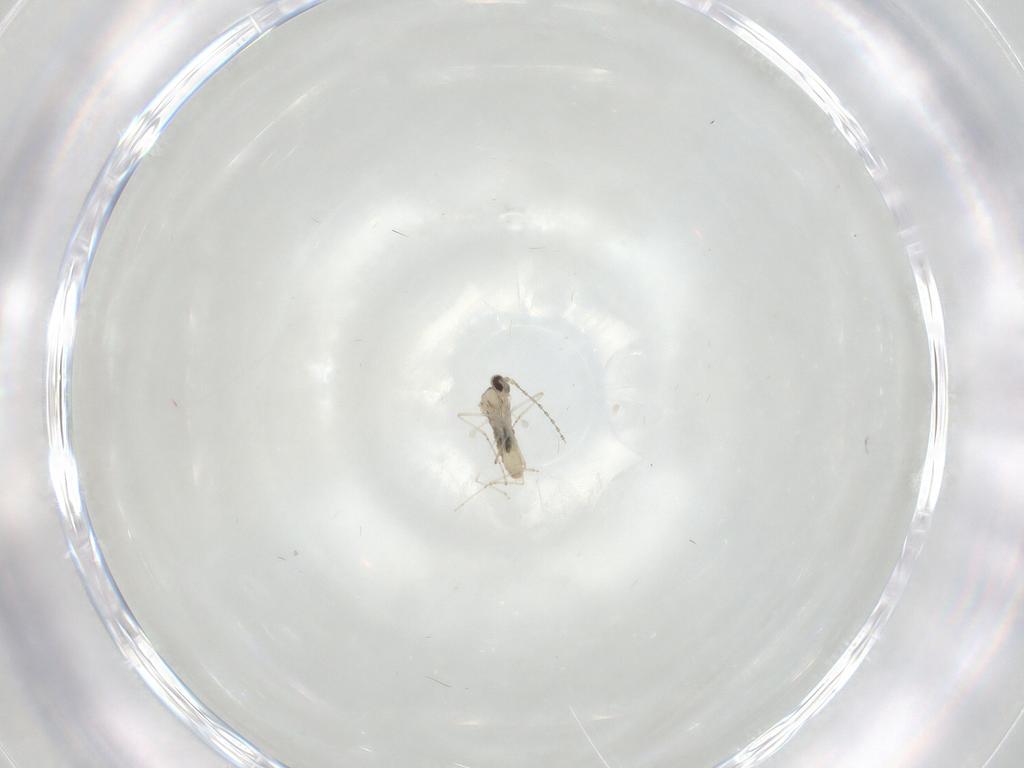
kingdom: Animalia
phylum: Arthropoda
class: Insecta
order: Diptera
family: Cecidomyiidae
